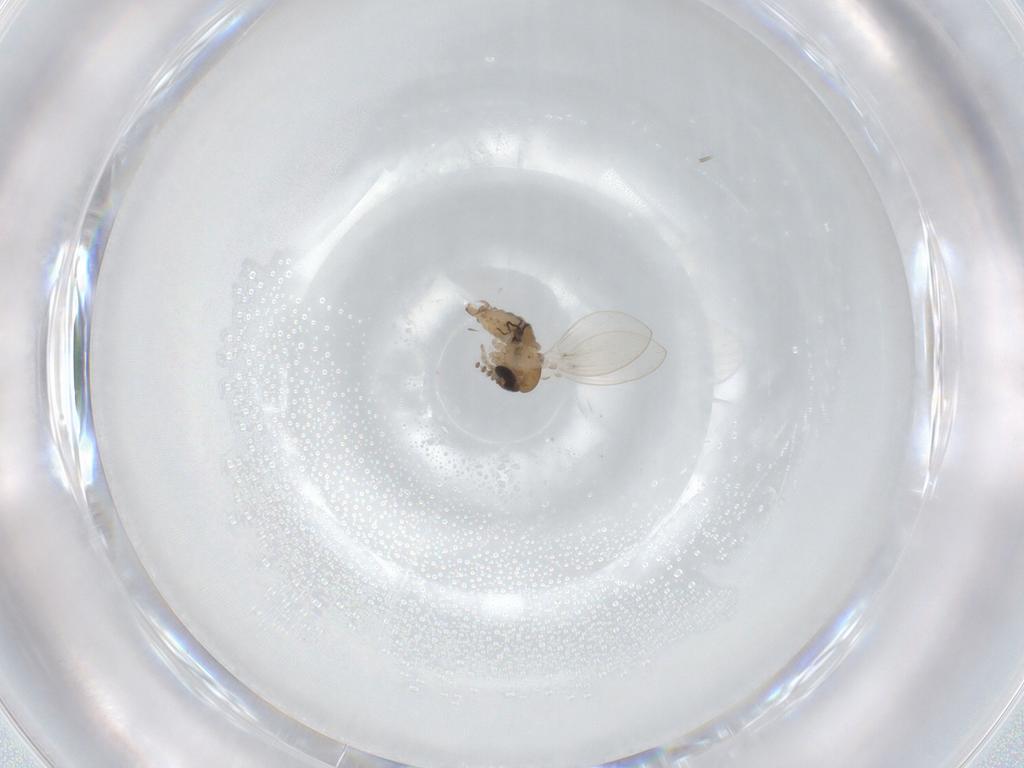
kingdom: Animalia
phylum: Arthropoda
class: Insecta
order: Diptera
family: Psychodidae
